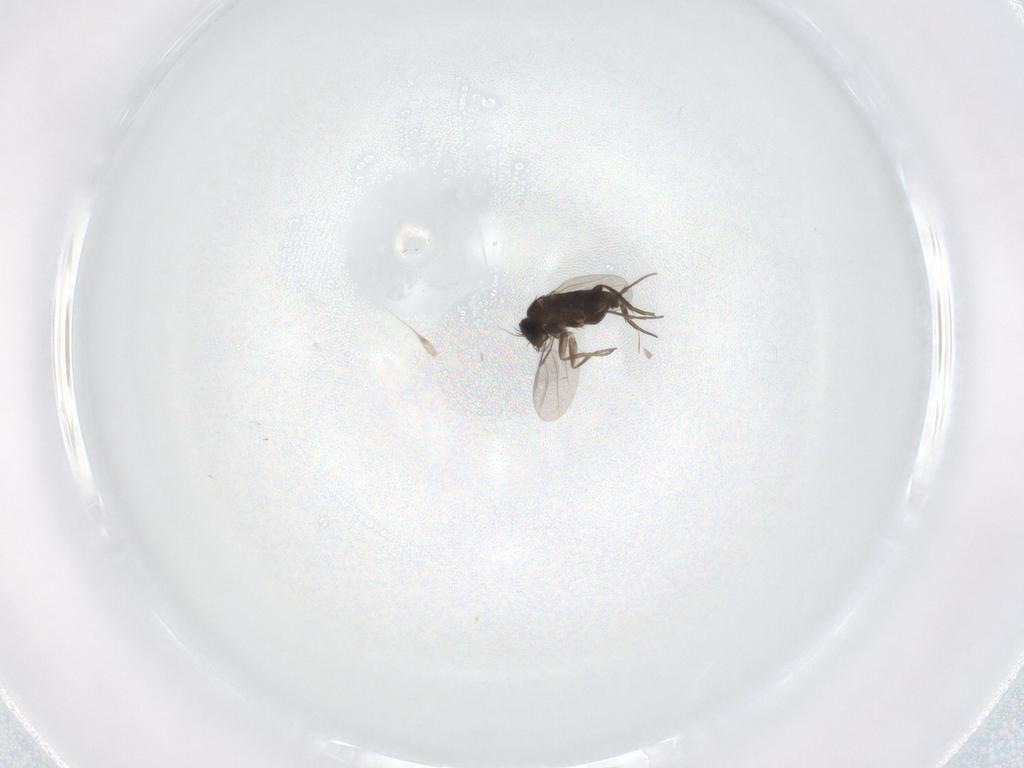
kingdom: Animalia
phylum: Arthropoda
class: Insecta
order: Diptera
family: Phoridae
